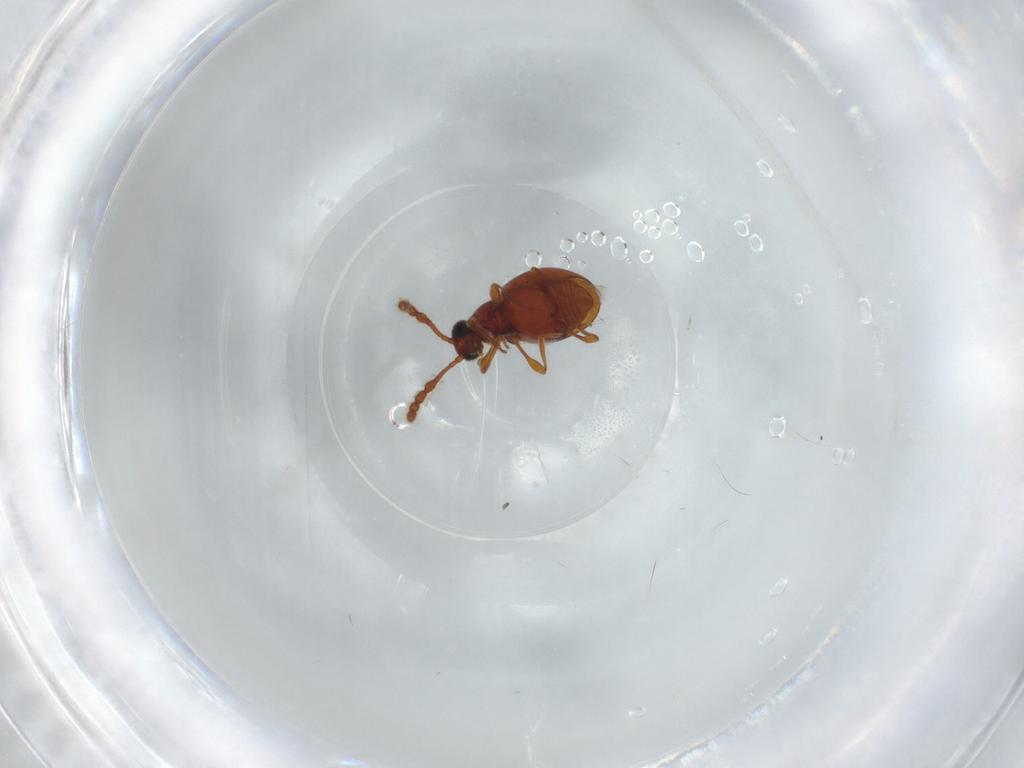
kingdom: Animalia
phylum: Arthropoda
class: Insecta
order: Coleoptera
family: Staphylinidae
